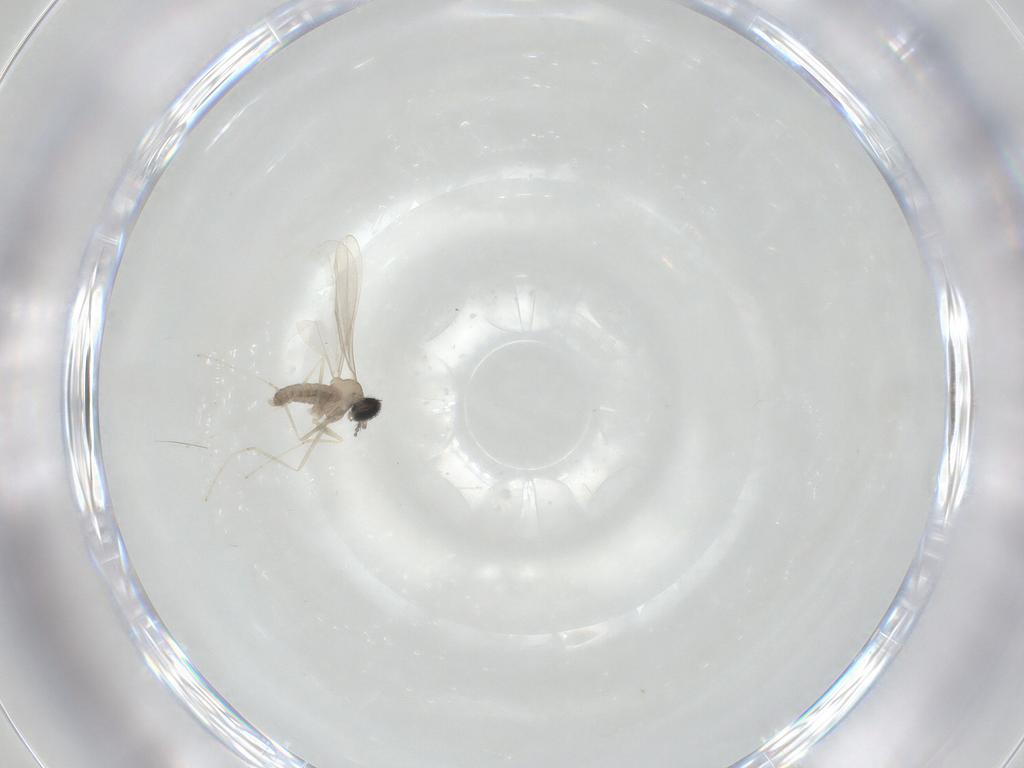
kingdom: Animalia
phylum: Arthropoda
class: Insecta
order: Diptera
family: Cecidomyiidae
